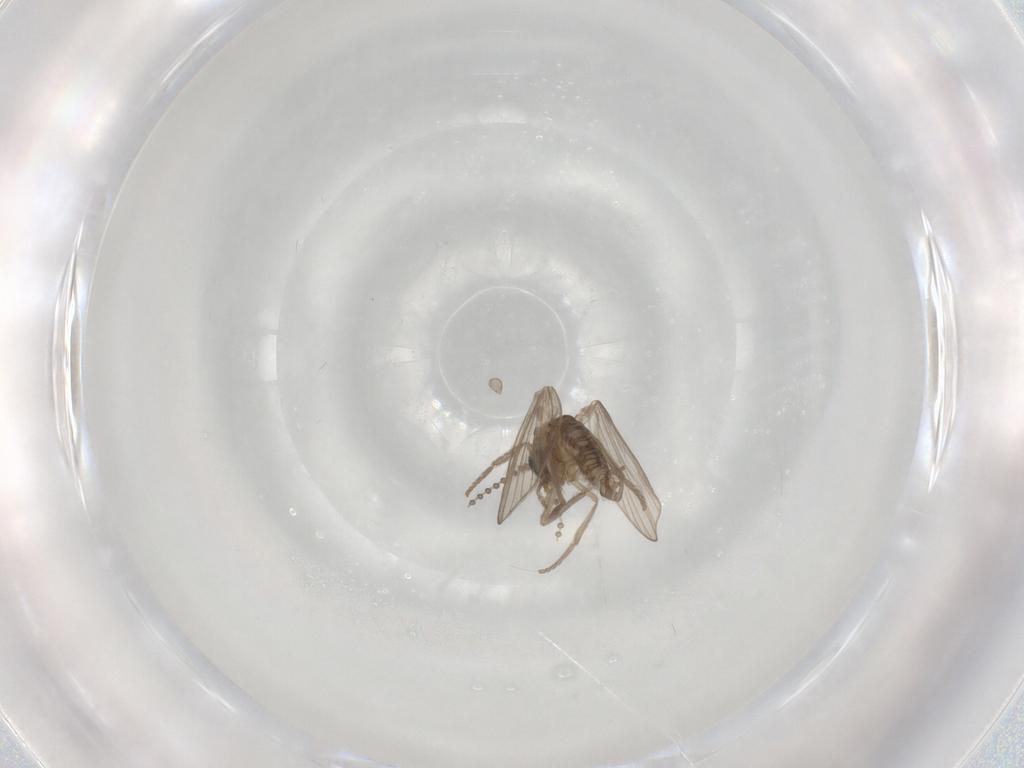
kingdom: Animalia
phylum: Arthropoda
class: Insecta
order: Diptera
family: Psychodidae
